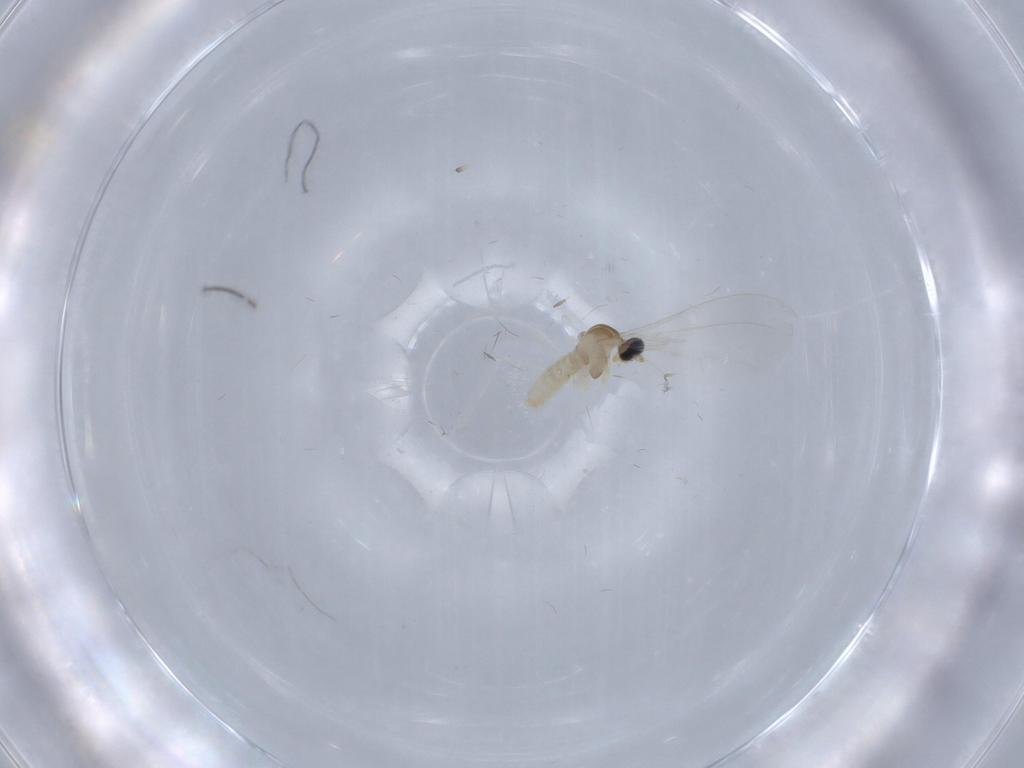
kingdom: Animalia
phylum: Arthropoda
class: Insecta
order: Diptera
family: Cecidomyiidae
